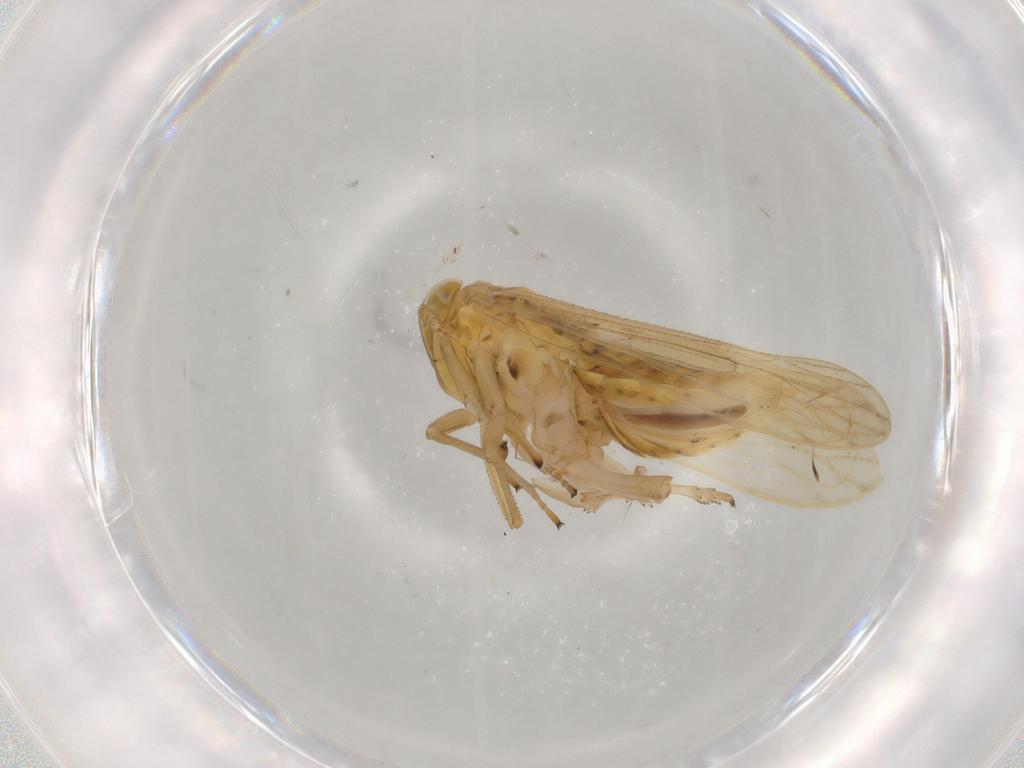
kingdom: Animalia
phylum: Arthropoda
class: Insecta
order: Hemiptera
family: Delphacidae
